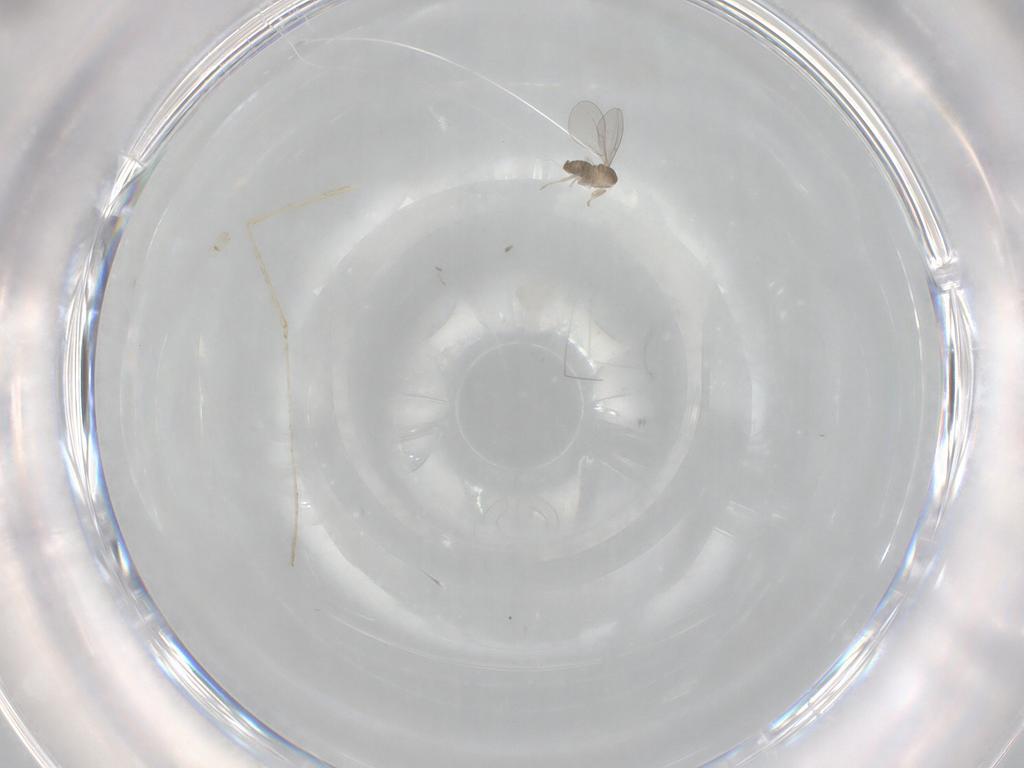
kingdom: Animalia
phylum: Arthropoda
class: Insecta
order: Diptera
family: Cecidomyiidae
